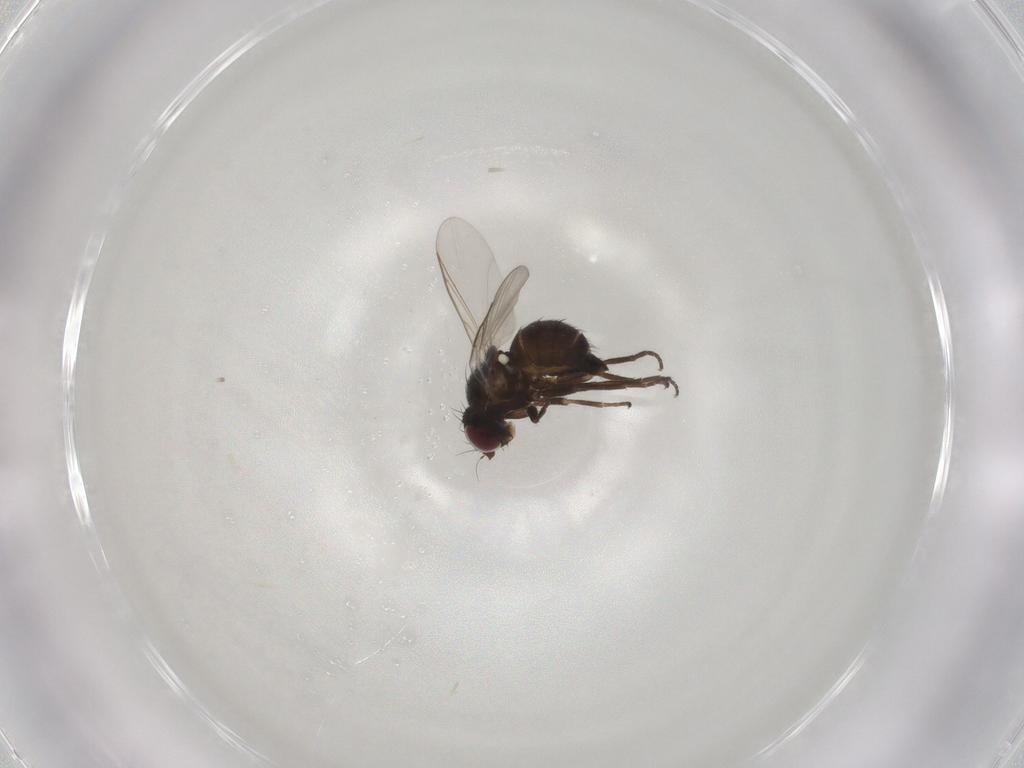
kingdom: Animalia
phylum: Arthropoda
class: Insecta
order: Diptera
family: Agromyzidae
